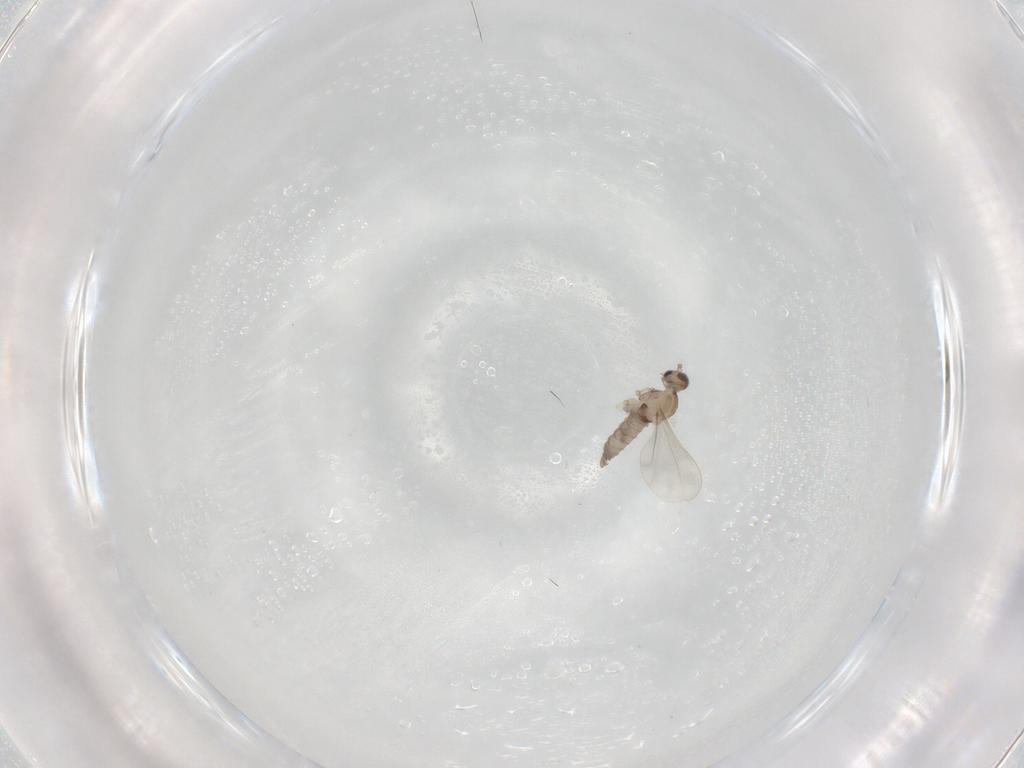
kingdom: Animalia
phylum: Arthropoda
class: Insecta
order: Diptera
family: Cecidomyiidae
